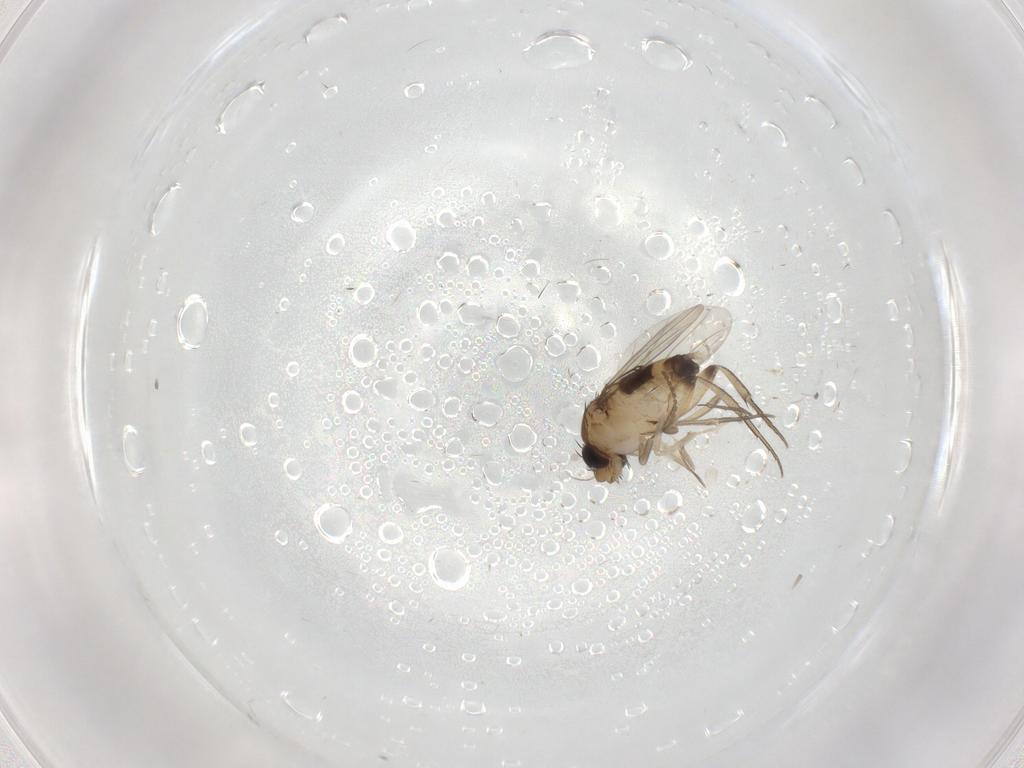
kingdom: Animalia
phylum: Arthropoda
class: Insecta
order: Diptera
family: Phoridae
